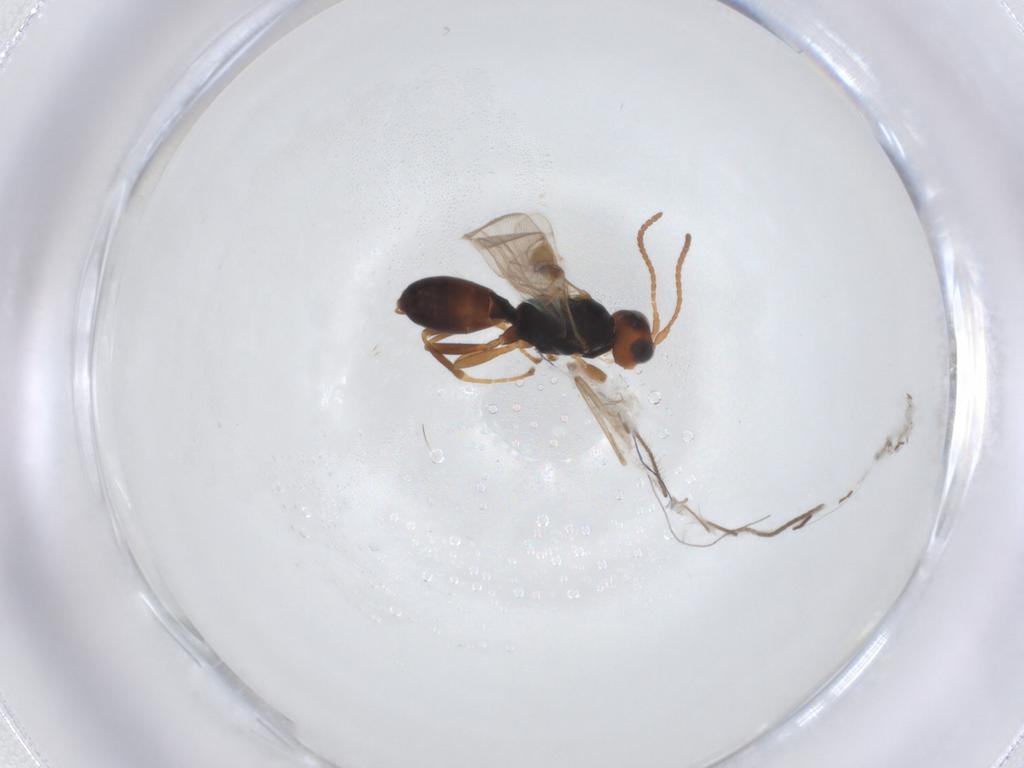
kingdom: Animalia
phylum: Arthropoda
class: Insecta
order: Hymenoptera
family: Braconidae
